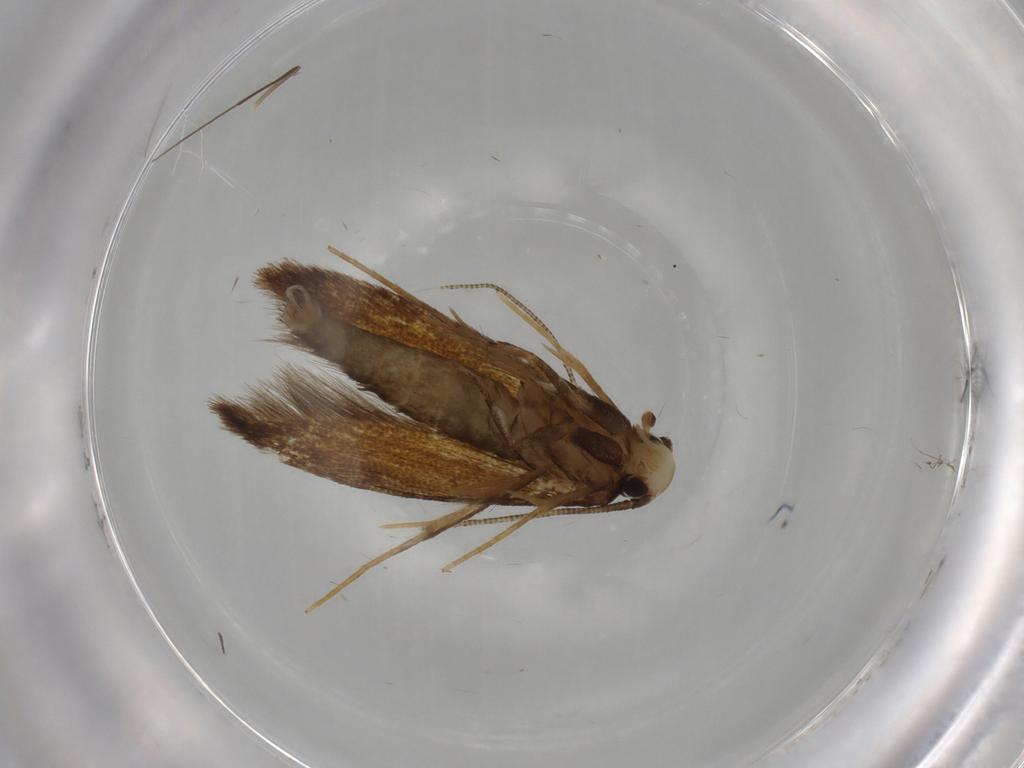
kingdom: Animalia
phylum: Arthropoda
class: Insecta
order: Lepidoptera
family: Tineidae
